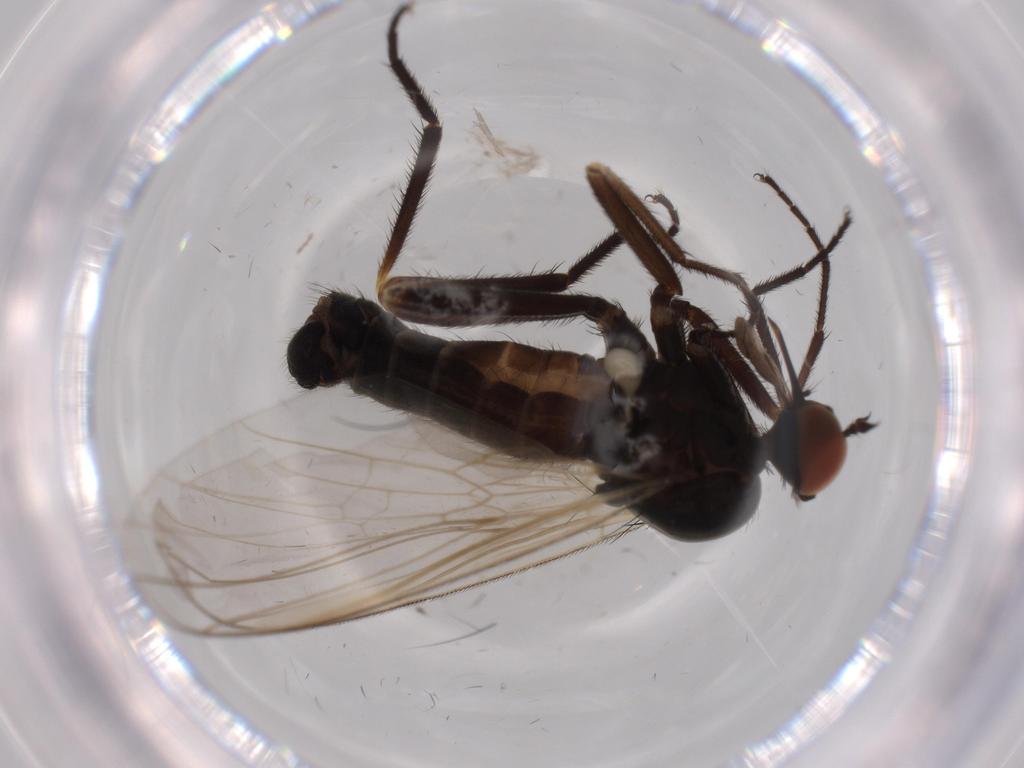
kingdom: Animalia
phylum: Arthropoda
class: Insecta
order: Diptera
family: Empididae
